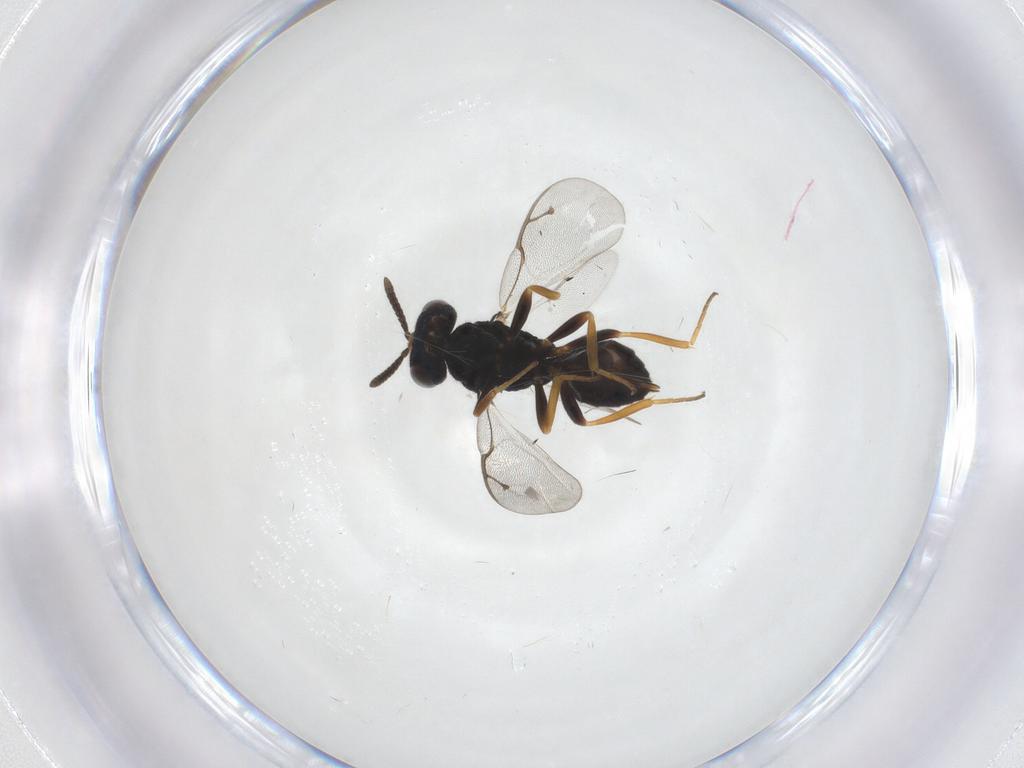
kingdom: Animalia
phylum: Arthropoda
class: Insecta
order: Hymenoptera
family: Pteromalidae
